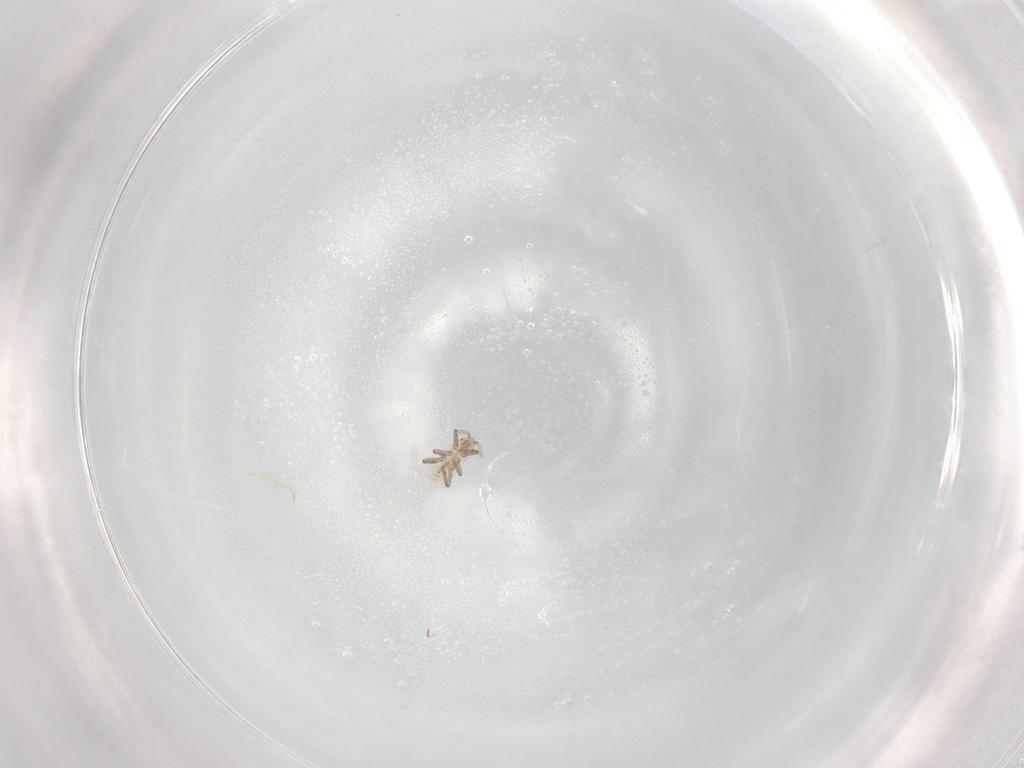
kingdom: Animalia
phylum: Arthropoda
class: Insecta
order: Hemiptera
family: Aphididae
